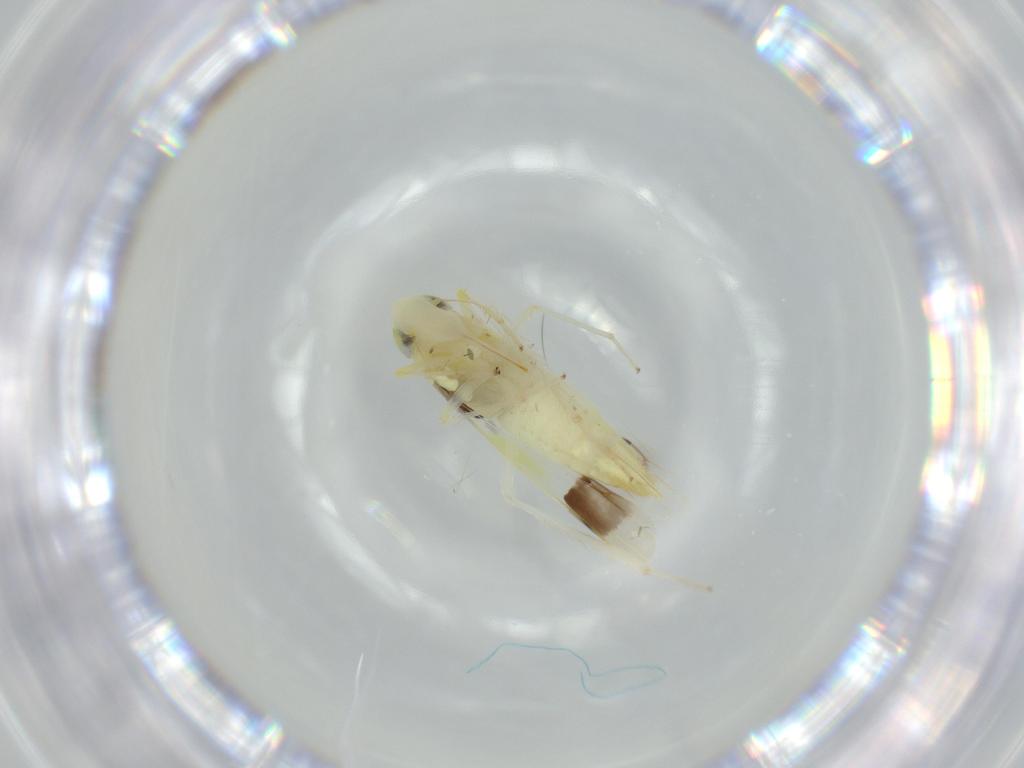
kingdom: Animalia
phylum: Arthropoda
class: Insecta
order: Hemiptera
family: Cicadellidae
